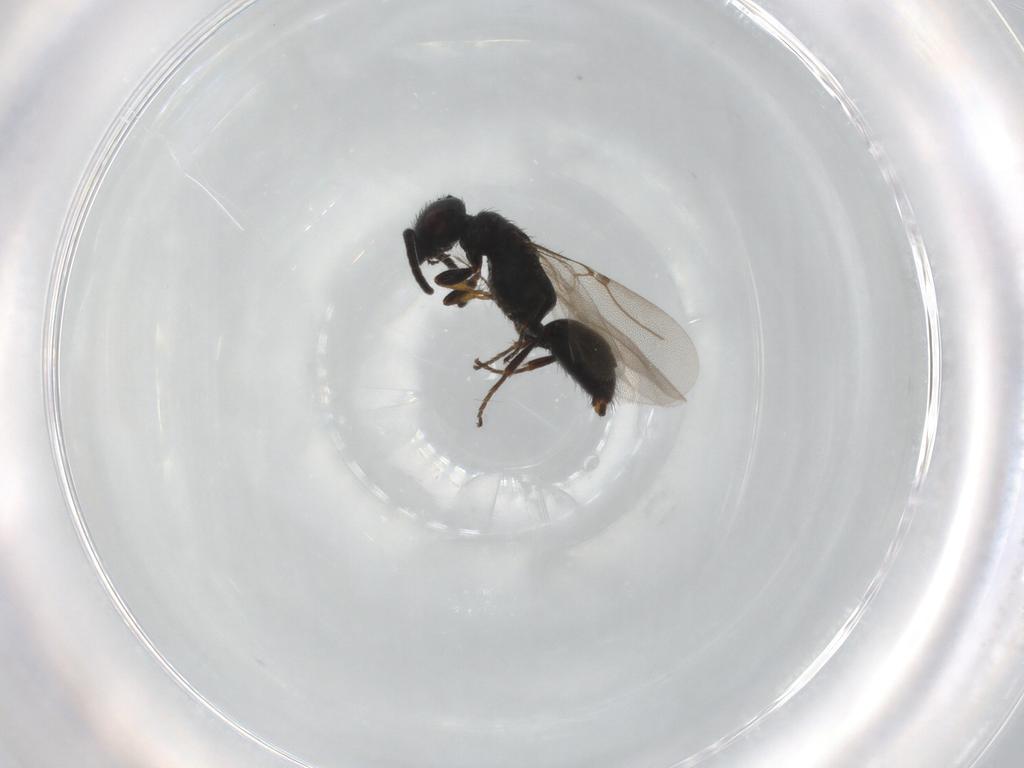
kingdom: Animalia
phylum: Arthropoda
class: Insecta
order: Hymenoptera
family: Bethylidae
